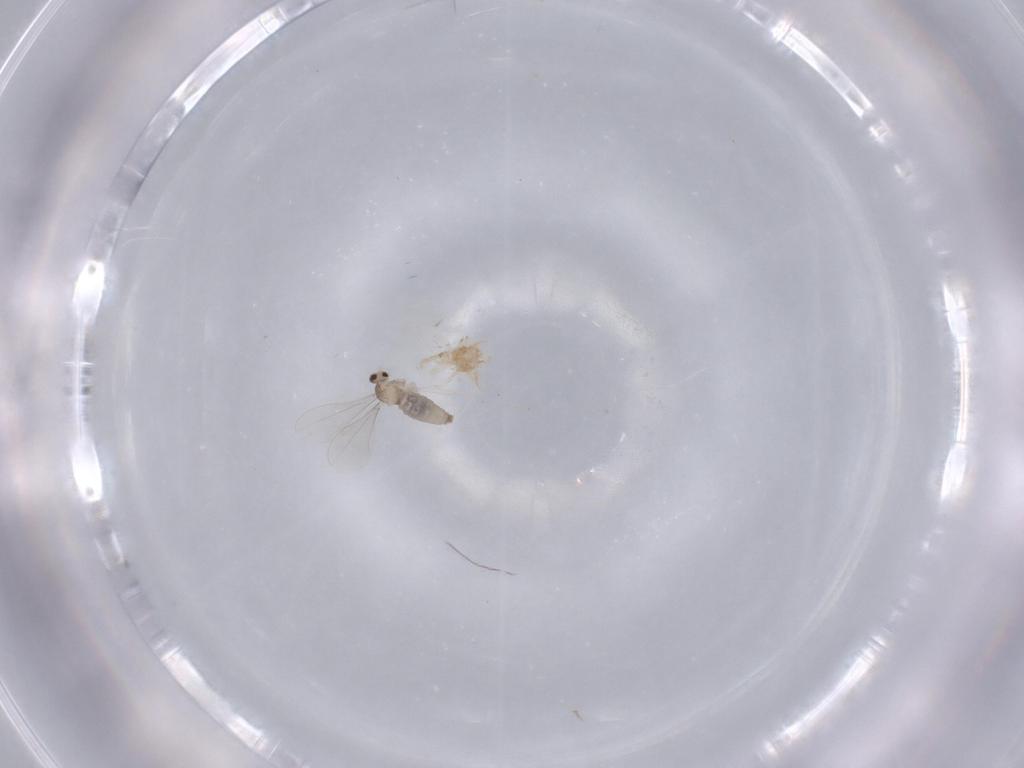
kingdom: Animalia
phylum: Arthropoda
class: Insecta
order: Diptera
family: Cecidomyiidae
